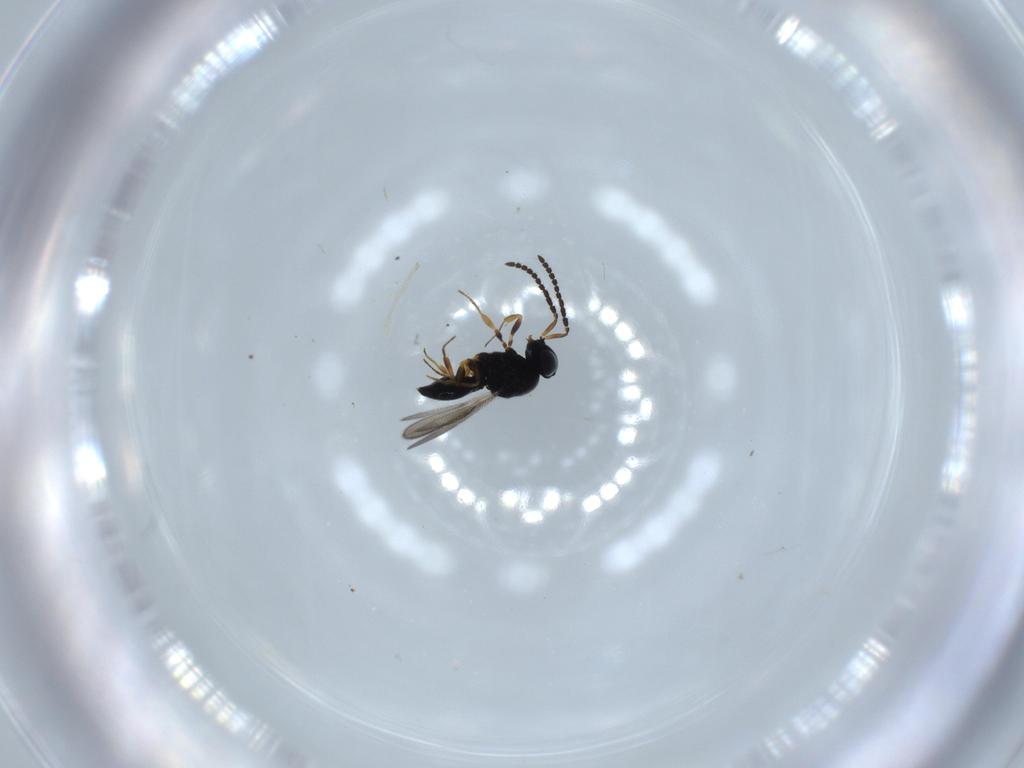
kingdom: Animalia
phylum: Arthropoda
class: Insecta
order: Hymenoptera
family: Scelionidae
